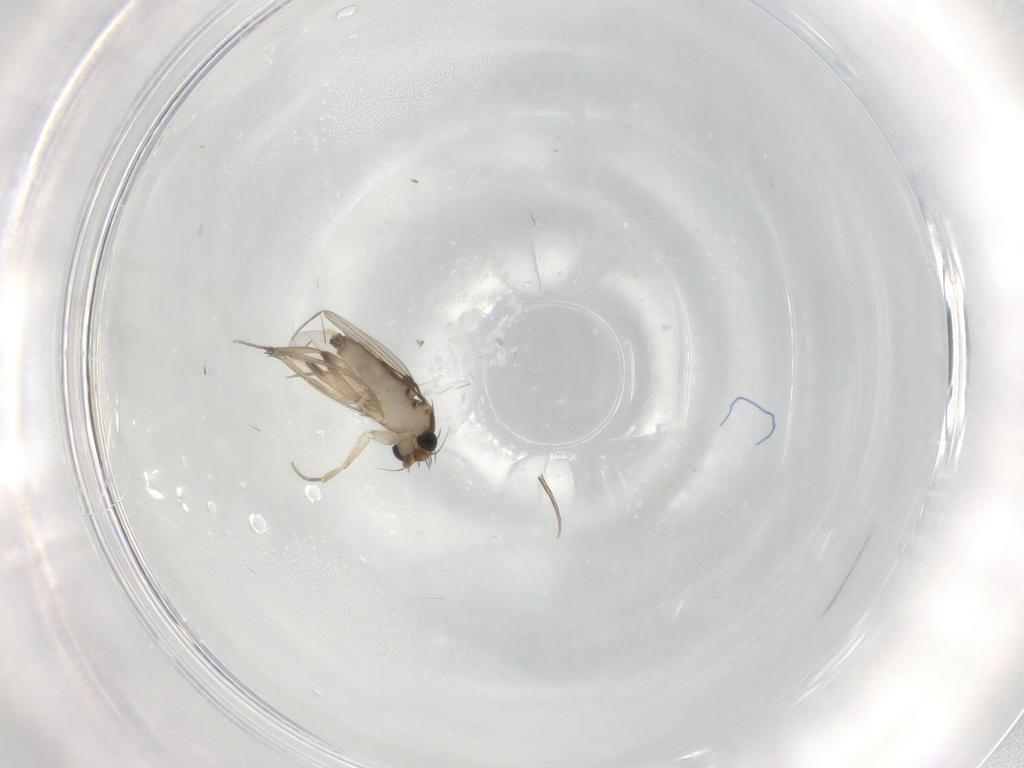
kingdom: Animalia
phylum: Arthropoda
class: Insecta
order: Diptera
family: Phoridae
